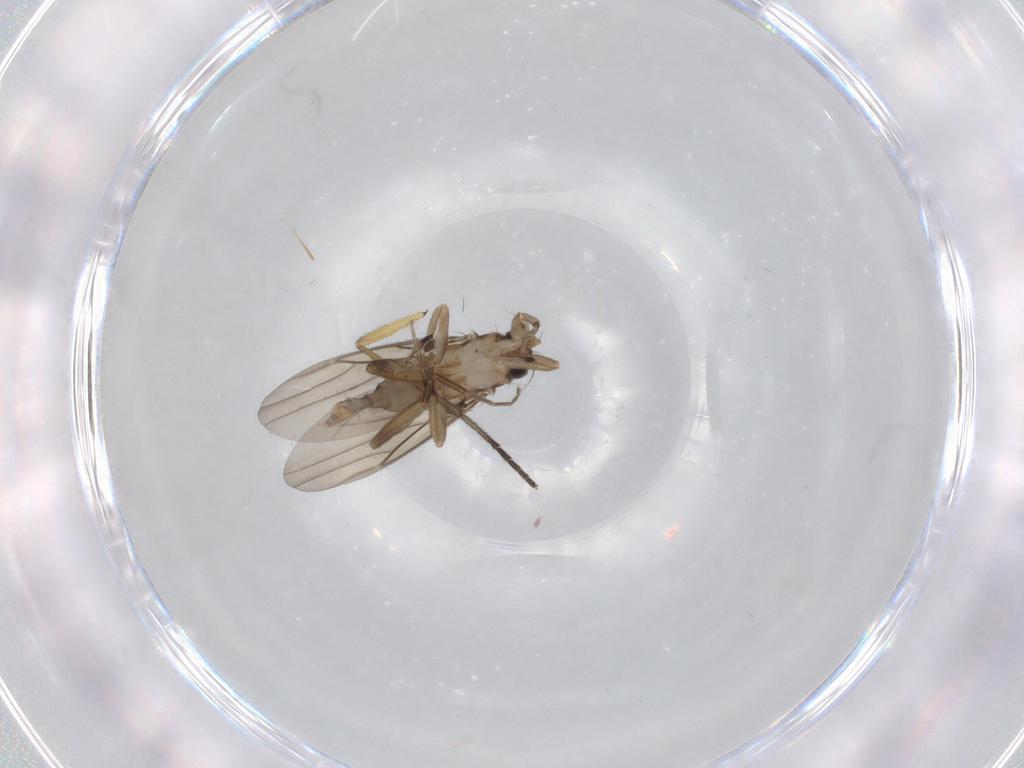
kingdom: Animalia
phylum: Arthropoda
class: Insecta
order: Diptera
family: Phoridae
